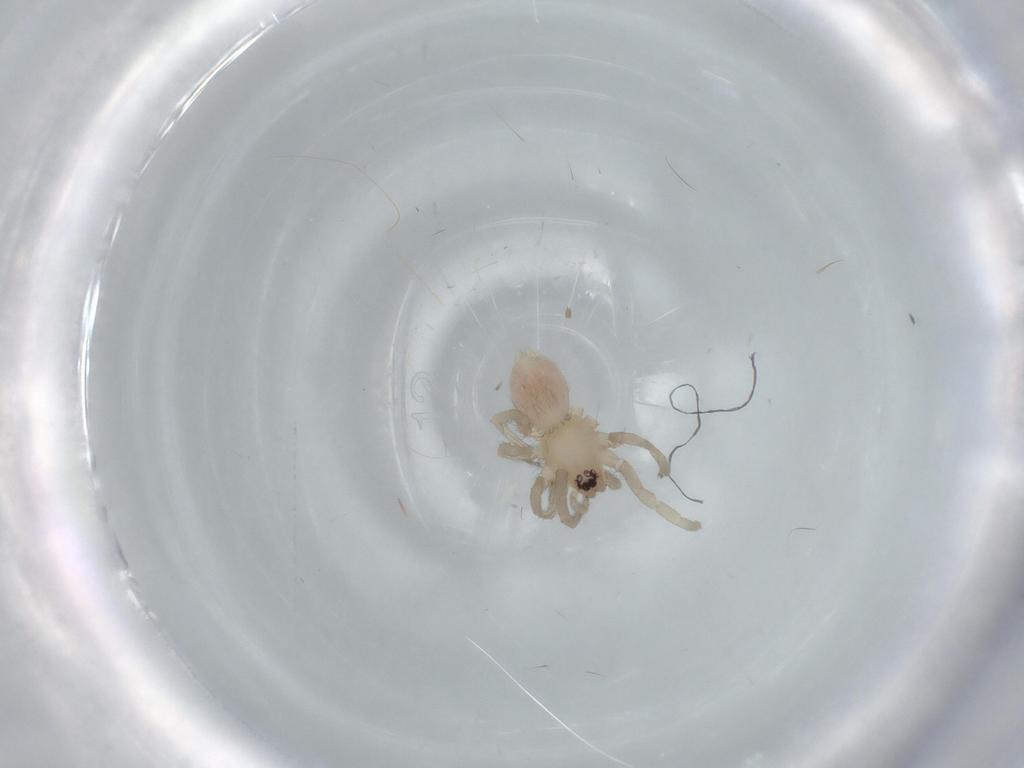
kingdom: Animalia
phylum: Arthropoda
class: Arachnida
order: Araneae
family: Gnaphosidae
